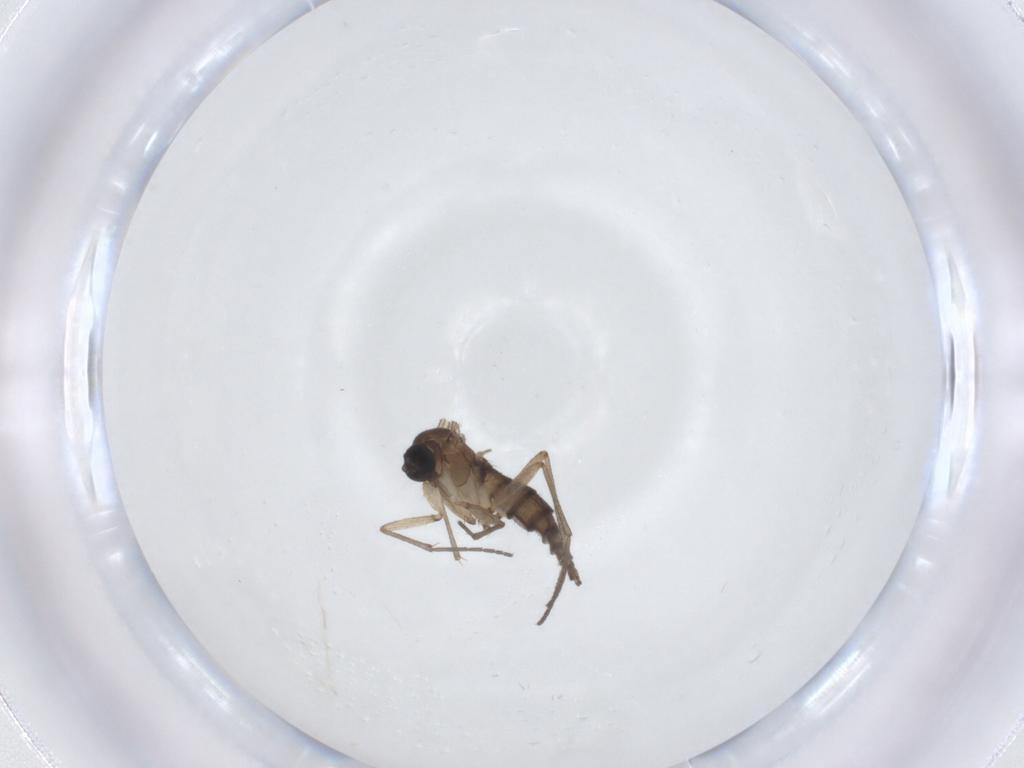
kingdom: Animalia
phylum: Arthropoda
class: Insecta
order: Diptera
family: Sciaridae
